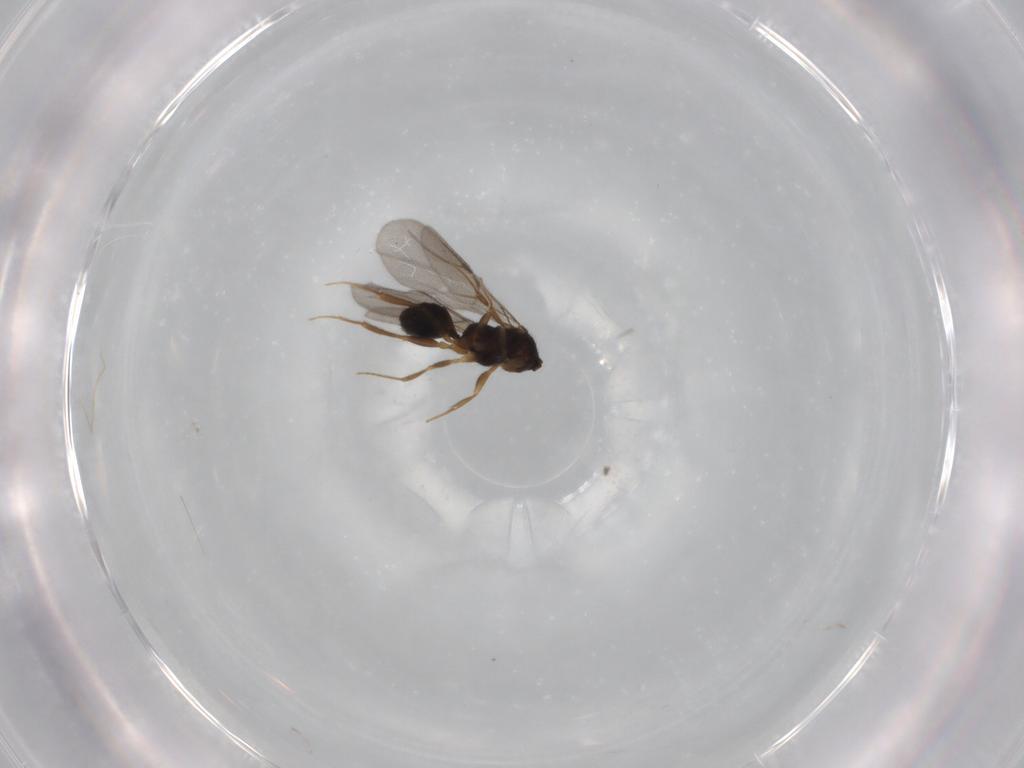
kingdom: Animalia
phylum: Arthropoda
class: Insecta
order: Hymenoptera
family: Bethylidae
